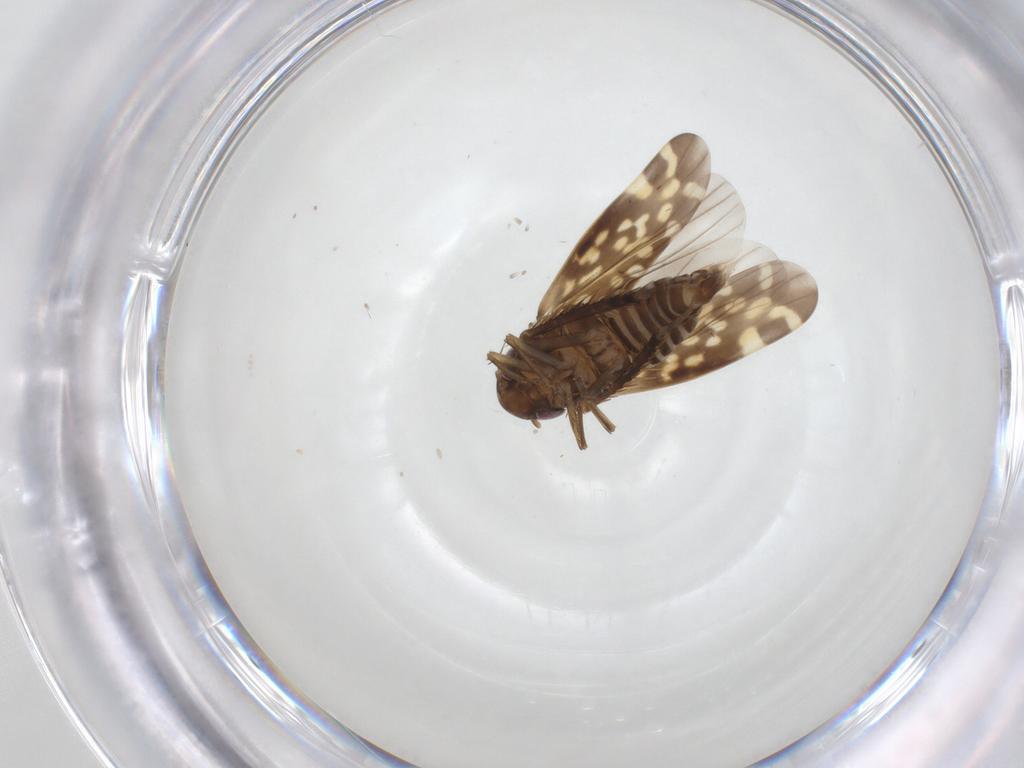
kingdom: Animalia
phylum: Arthropoda
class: Insecta
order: Hemiptera
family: Cicadellidae
